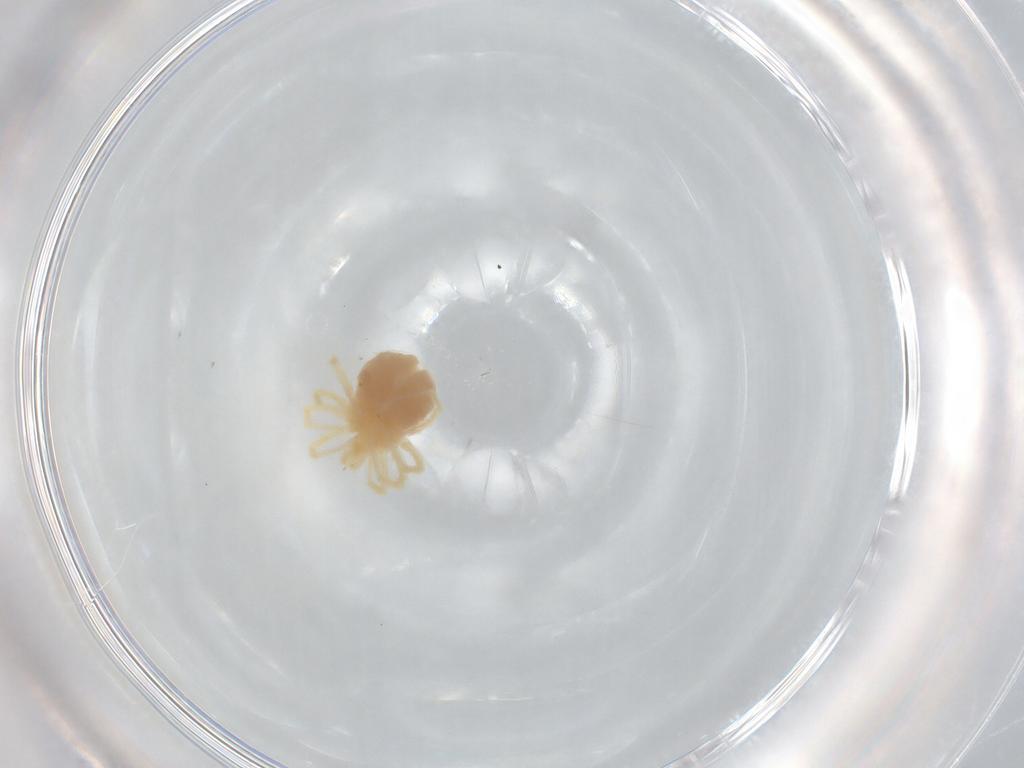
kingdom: Animalia
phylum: Arthropoda
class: Arachnida
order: Trombidiformes
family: Anystidae
